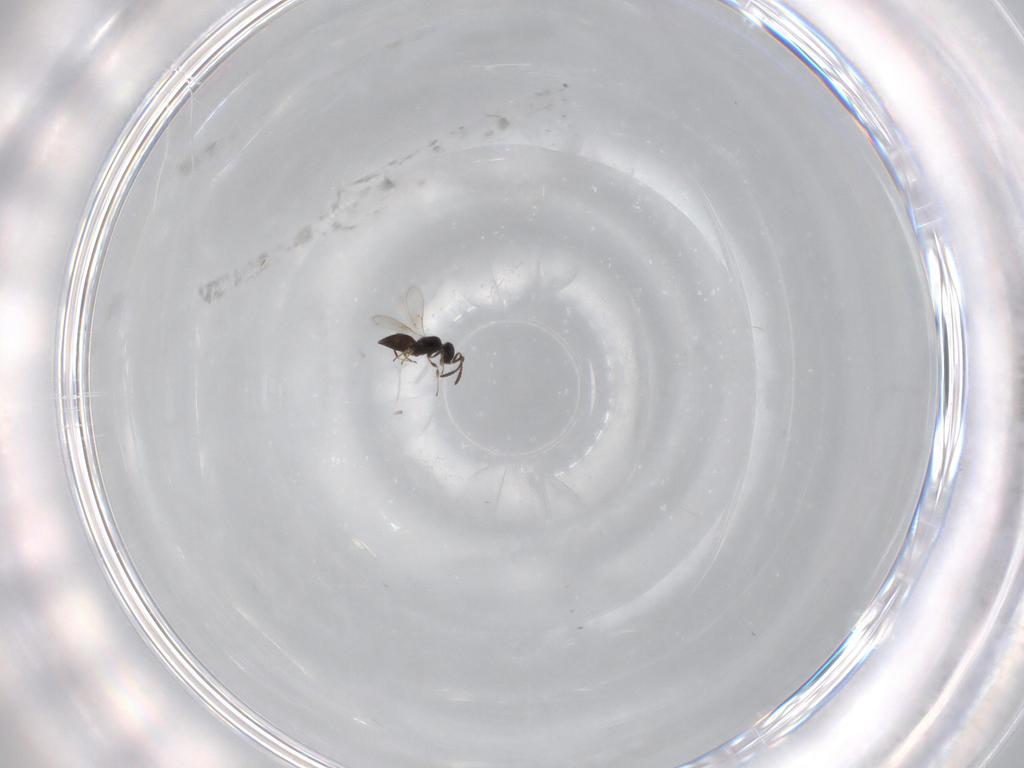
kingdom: Animalia
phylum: Arthropoda
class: Insecta
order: Hymenoptera
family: Scelionidae
